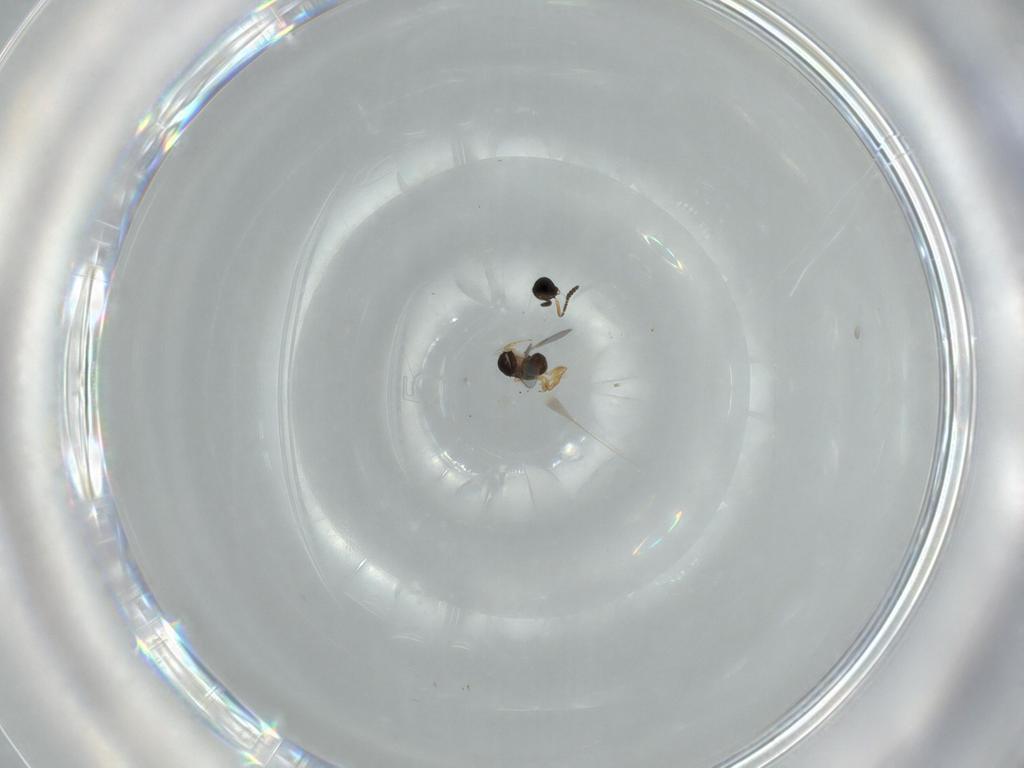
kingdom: Animalia
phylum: Arthropoda
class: Insecta
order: Hymenoptera
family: Scelionidae
